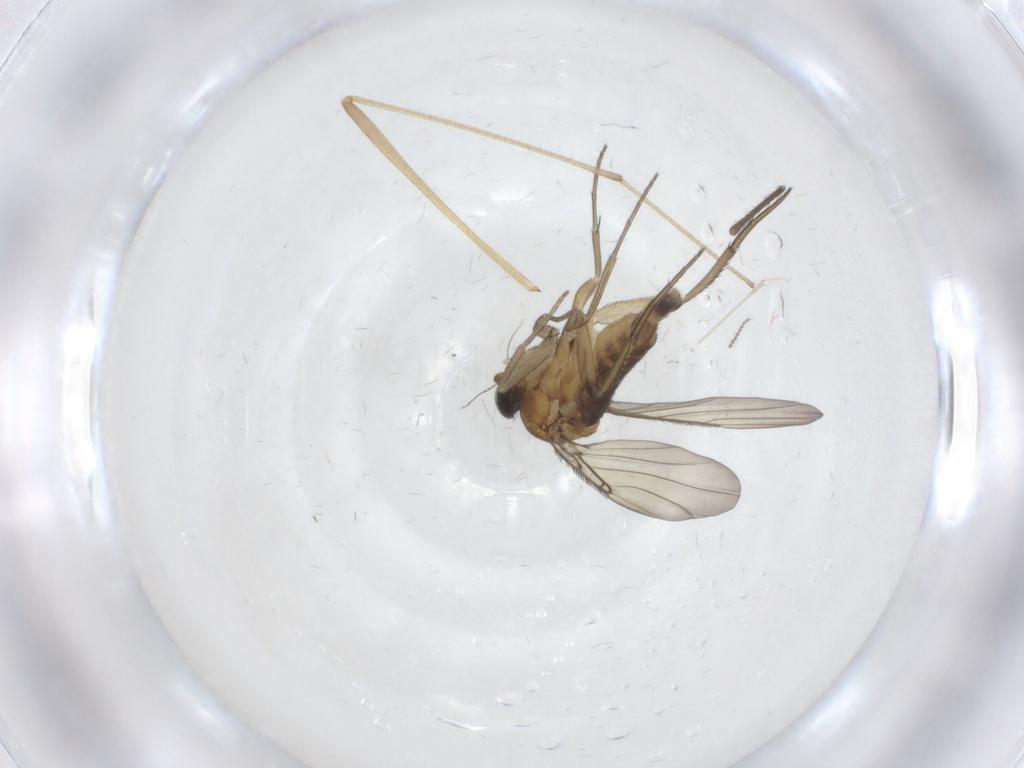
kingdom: Animalia
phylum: Arthropoda
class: Insecta
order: Diptera
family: Phoridae
